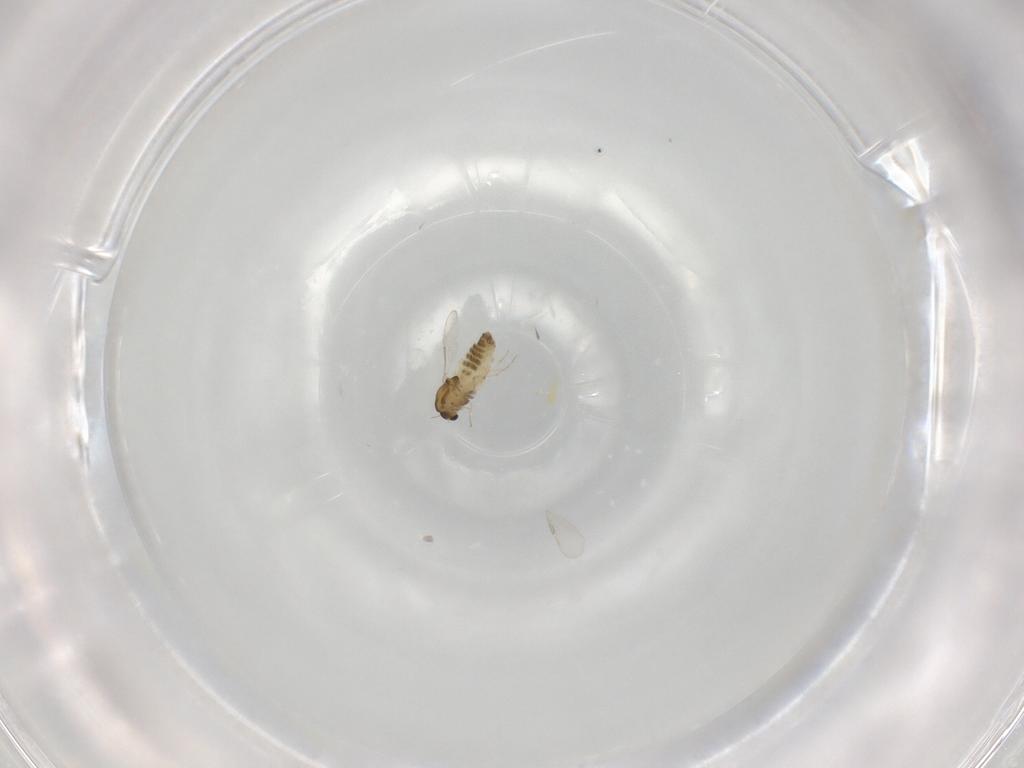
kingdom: Animalia
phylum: Arthropoda
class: Insecta
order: Diptera
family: Chironomidae
